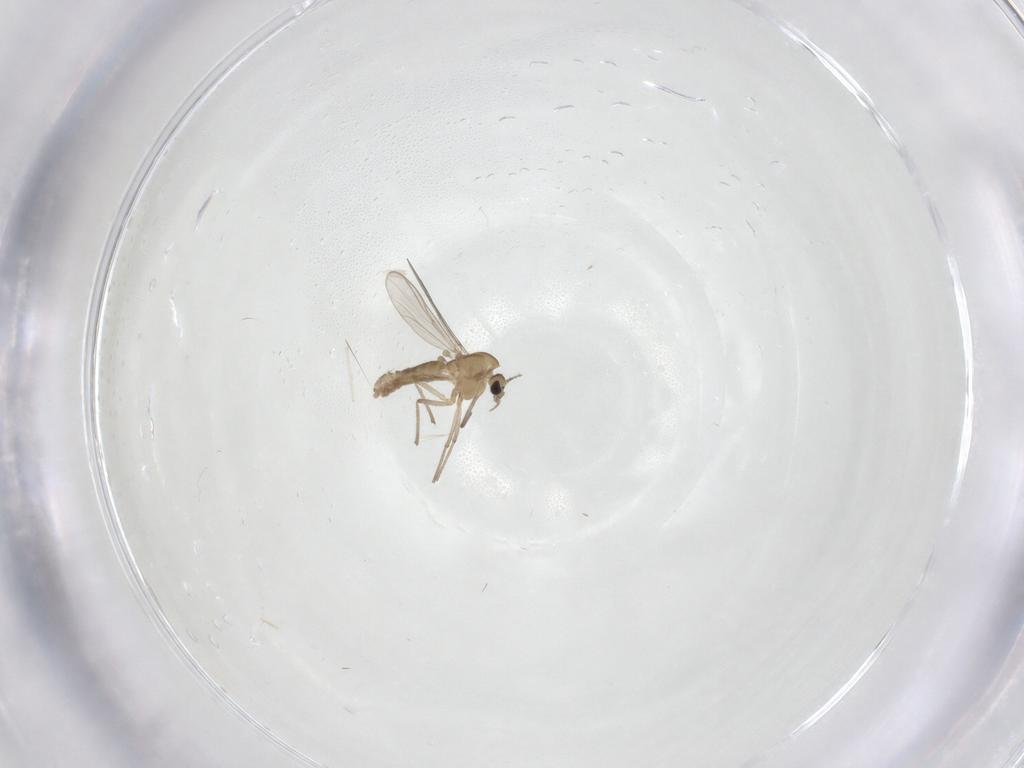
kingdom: Animalia
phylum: Arthropoda
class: Insecta
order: Diptera
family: Chironomidae
